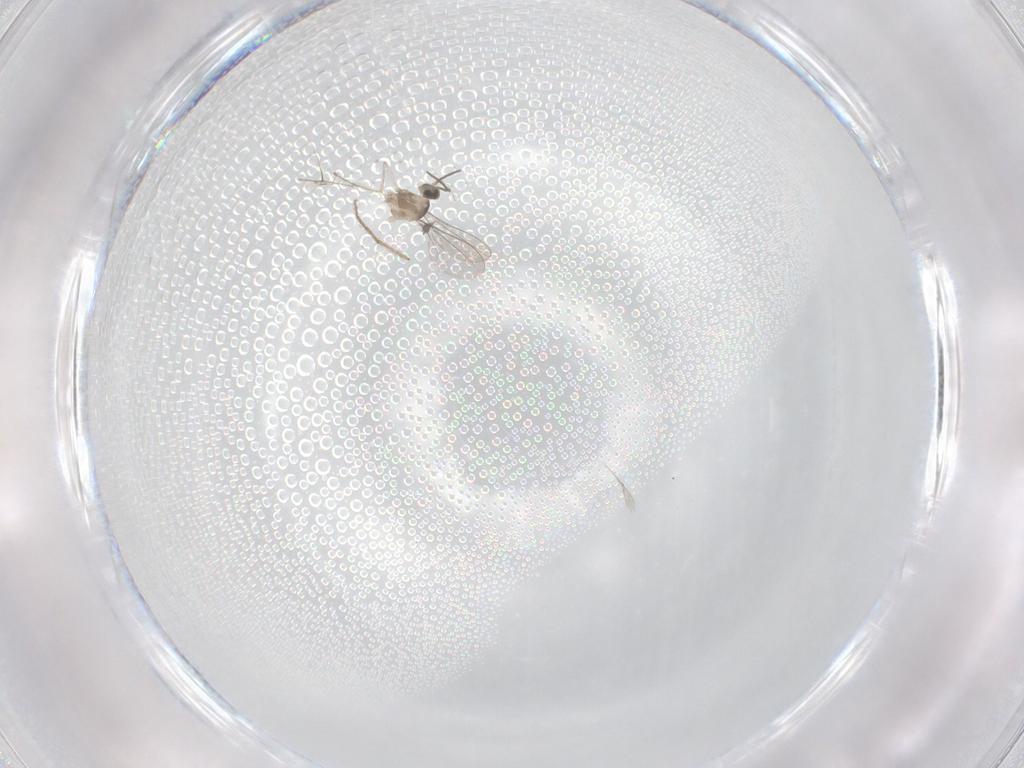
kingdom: Animalia
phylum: Arthropoda
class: Insecta
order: Diptera
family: Chironomidae
